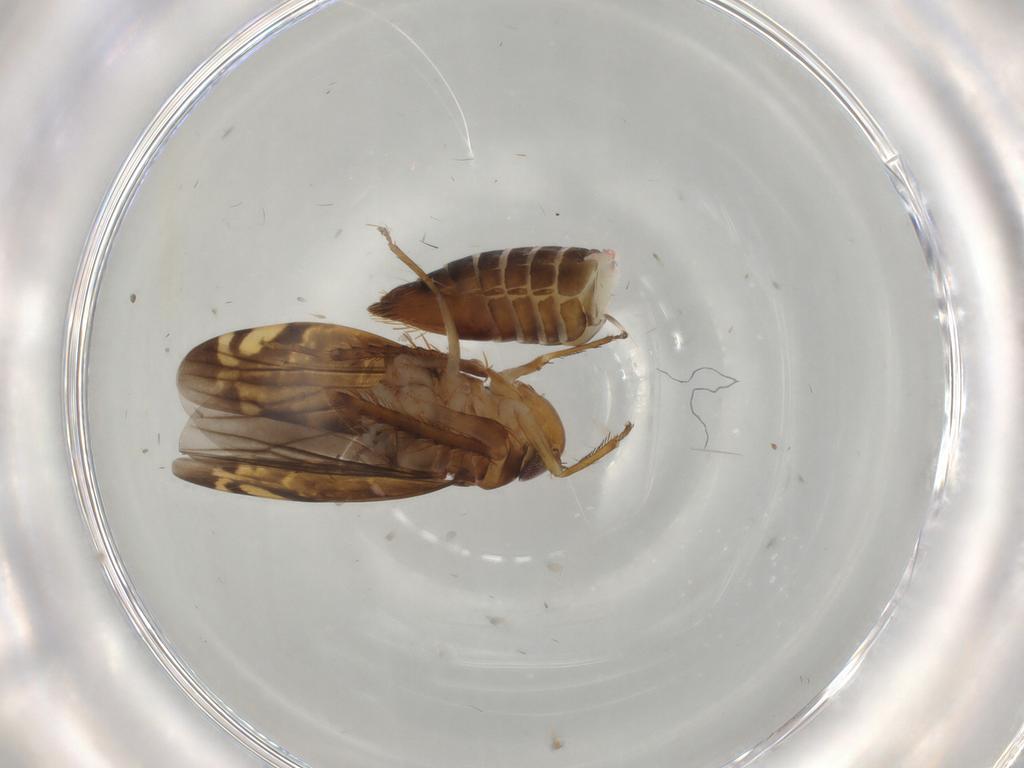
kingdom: Animalia
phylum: Arthropoda
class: Insecta
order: Hemiptera
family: Cicadellidae
